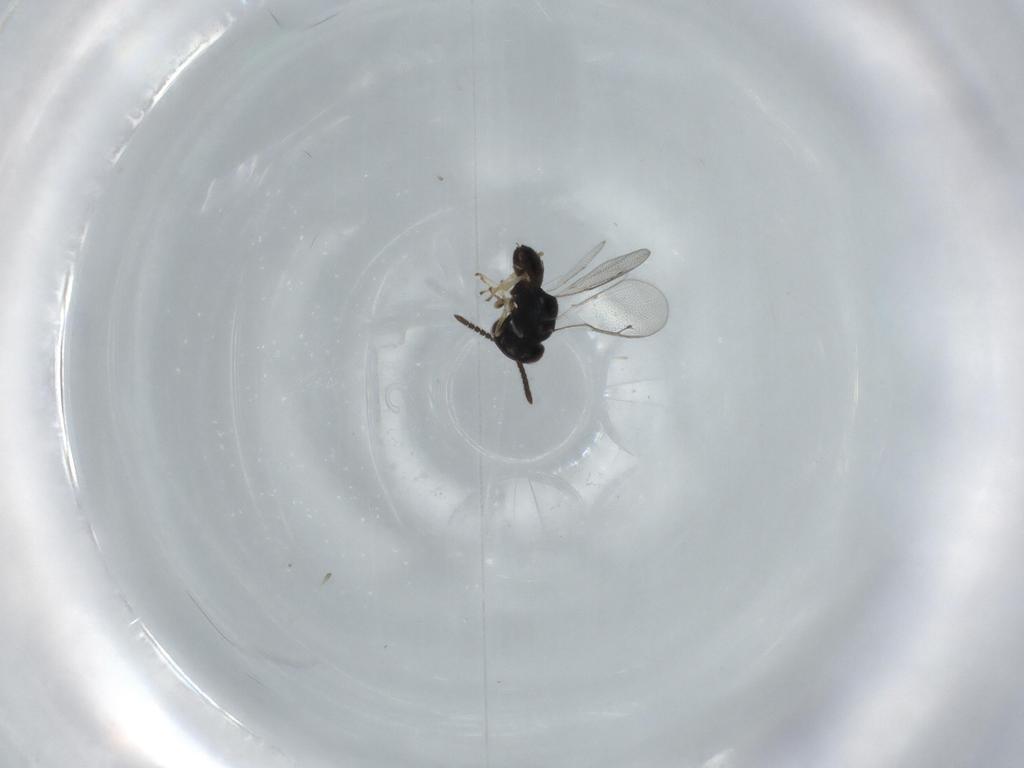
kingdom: Animalia
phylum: Arthropoda
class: Insecta
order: Hymenoptera
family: Pteromalidae
